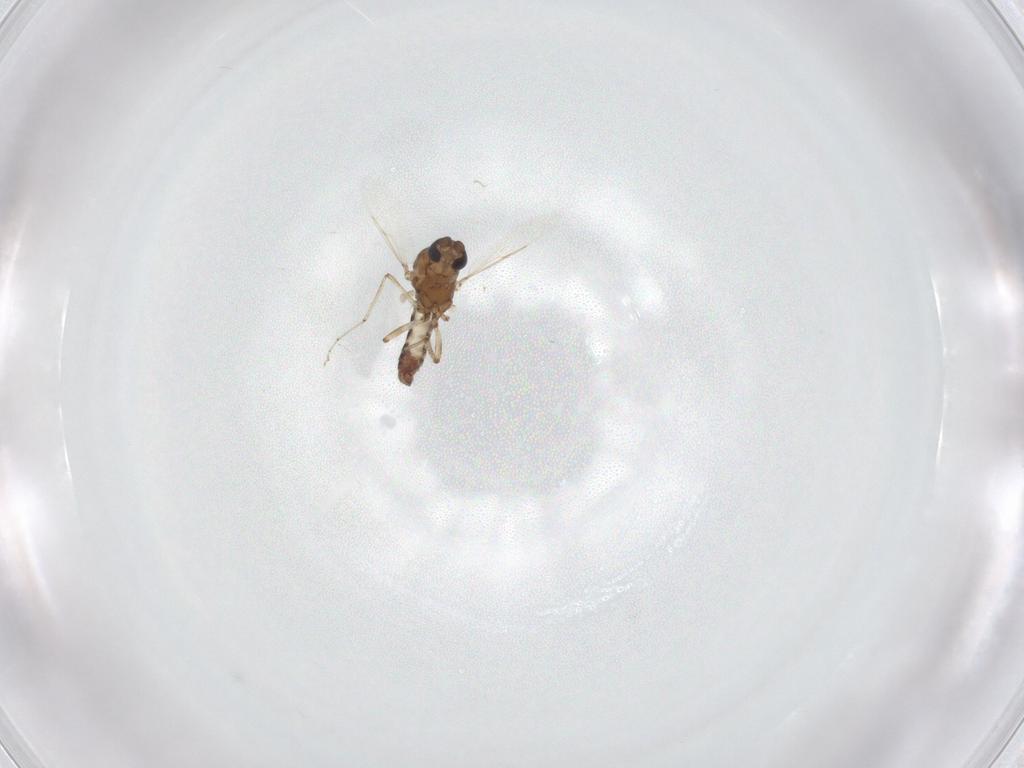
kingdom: Animalia
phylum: Arthropoda
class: Insecta
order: Diptera
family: Ceratopogonidae
